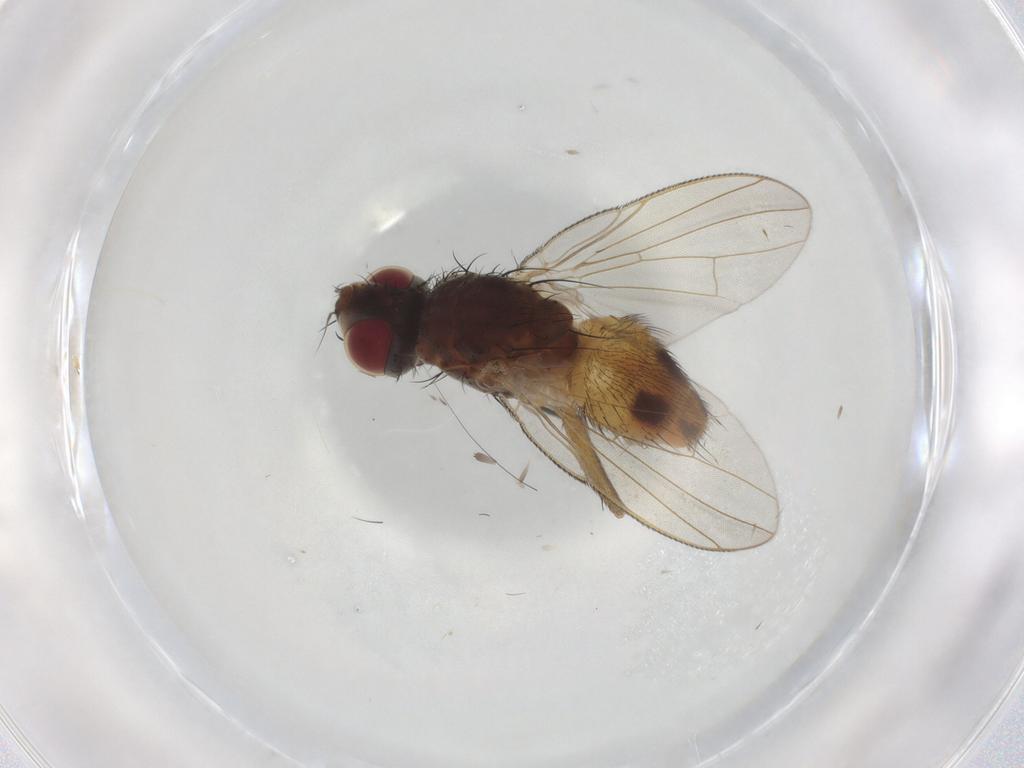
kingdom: Animalia
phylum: Arthropoda
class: Insecta
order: Diptera
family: Muscidae
